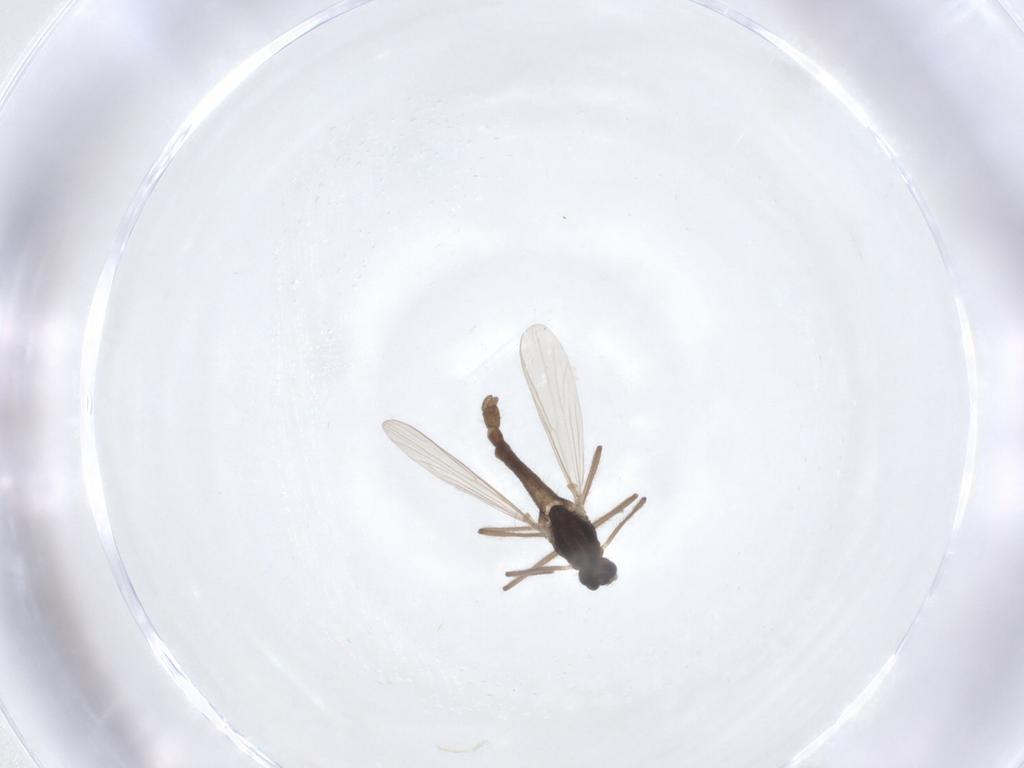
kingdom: Animalia
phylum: Arthropoda
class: Insecta
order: Diptera
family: Chironomidae
